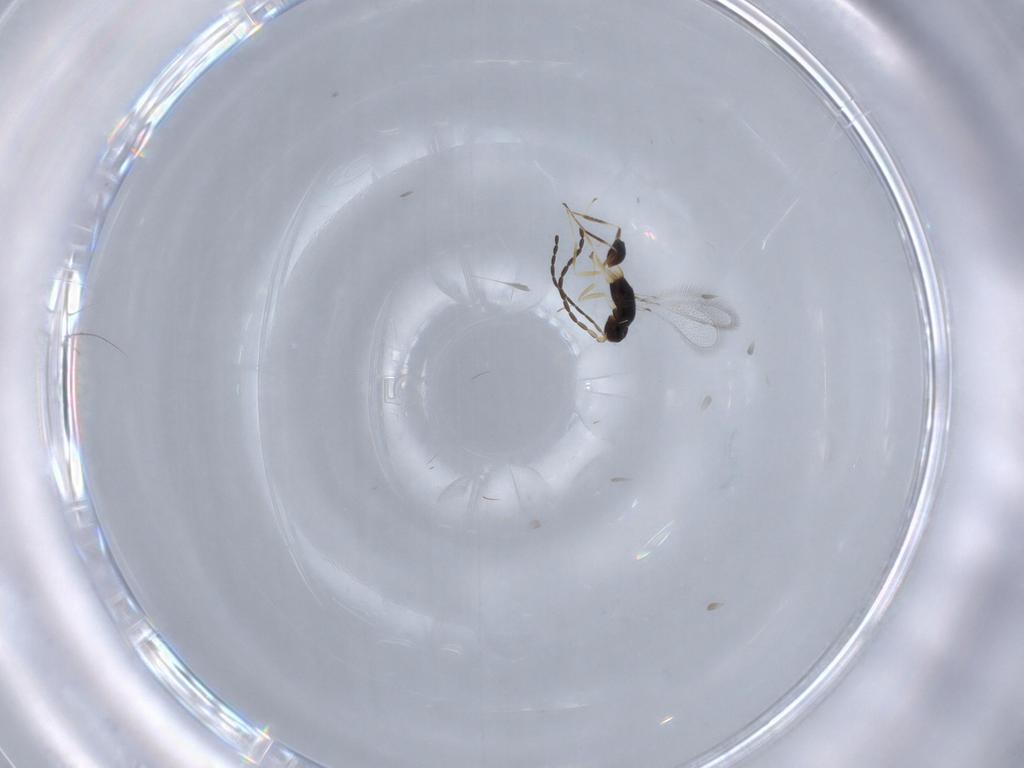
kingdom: Animalia
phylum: Arthropoda
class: Insecta
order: Hymenoptera
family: Mymaridae
